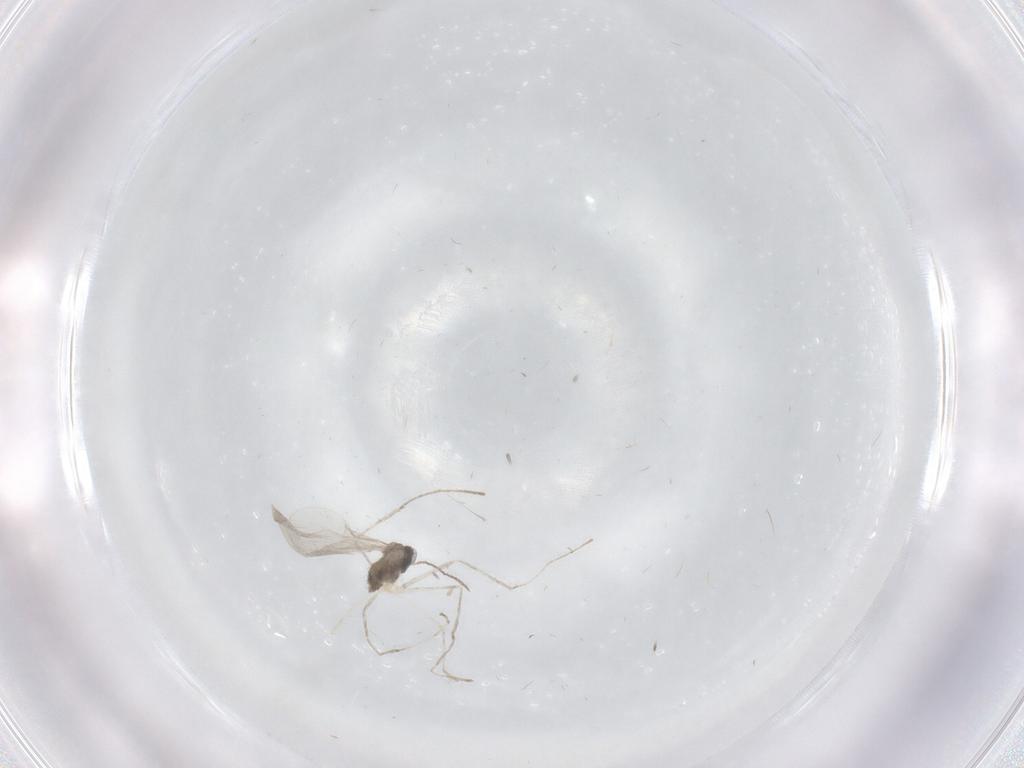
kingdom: Animalia
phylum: Arthropoda
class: Insecta
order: Diptera
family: Cecidomyiidae
